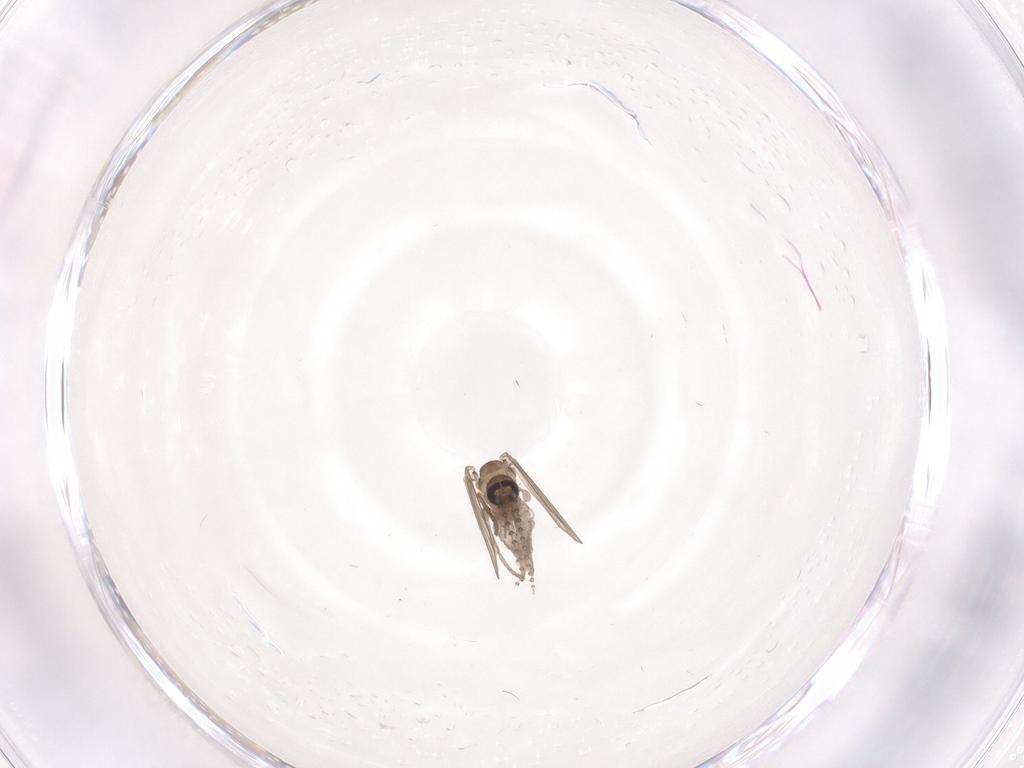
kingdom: Animalia
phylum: Arthropoda
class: Insecta
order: Diptera
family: Psychodidae
